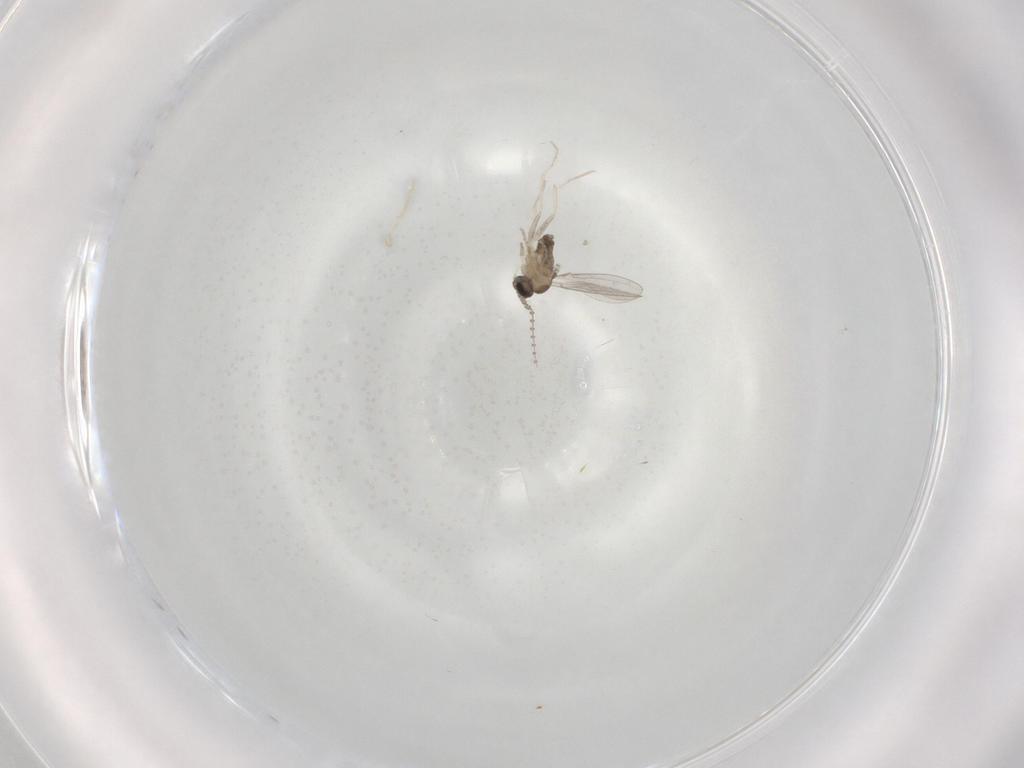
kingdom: Animalia
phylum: Arthropoda
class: Insecta
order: Diptera
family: Cecidomyiidae
